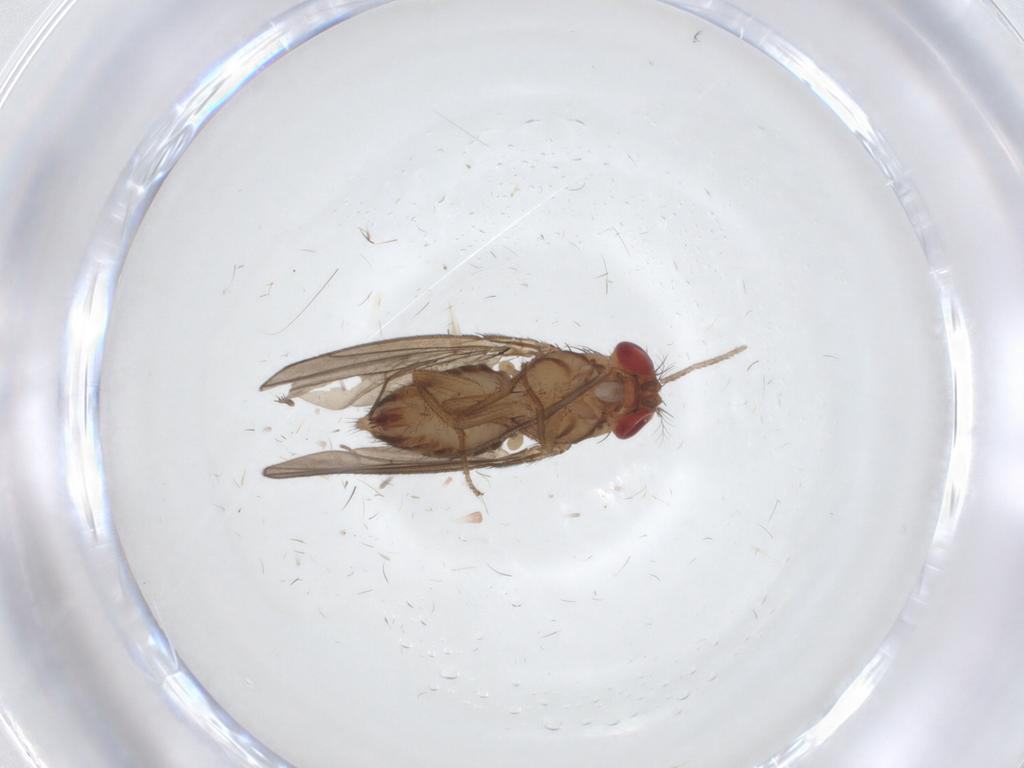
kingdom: Animalia
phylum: Arthropoda
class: Insecta
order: Diptera
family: Drosophilidae
